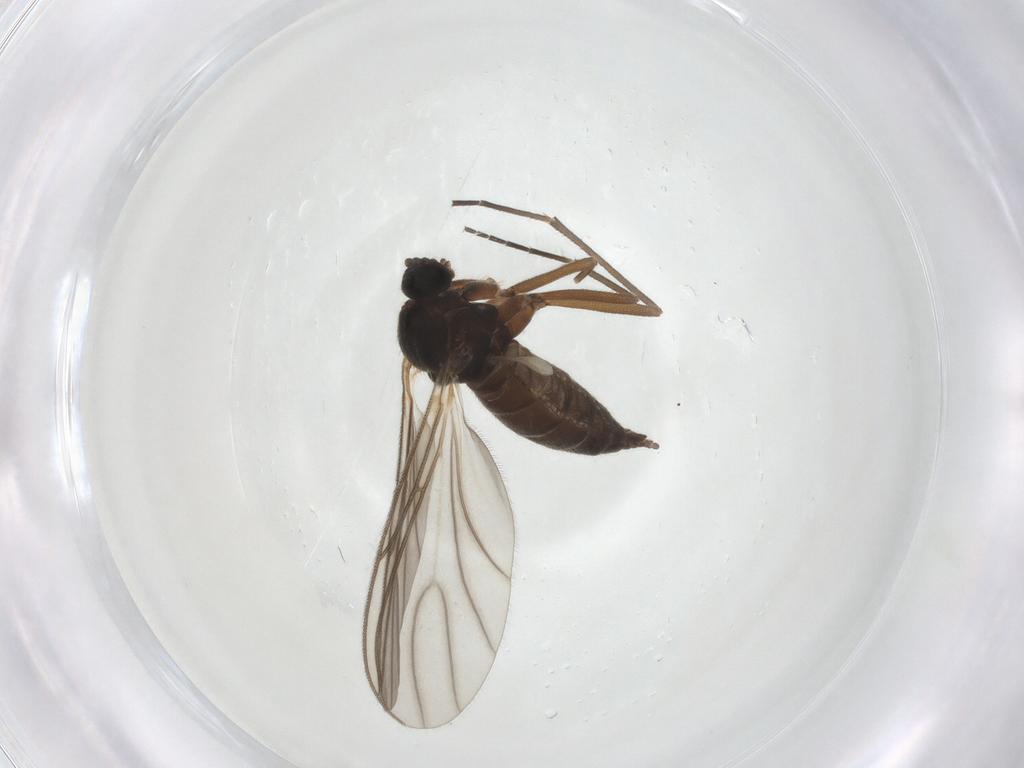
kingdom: Animalia
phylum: Arthropoda
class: Insecta
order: Diptera
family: Sciaridae
